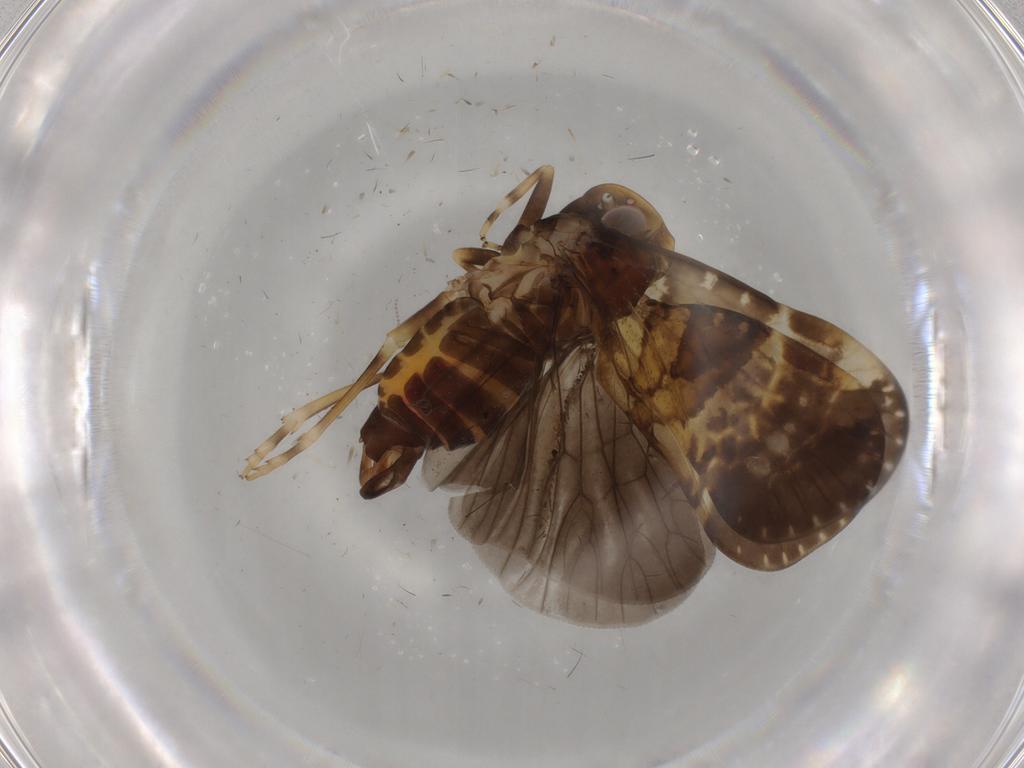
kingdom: Animalia
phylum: Arthropoda
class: Insecta
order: Hemiptera
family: Cixiidae
